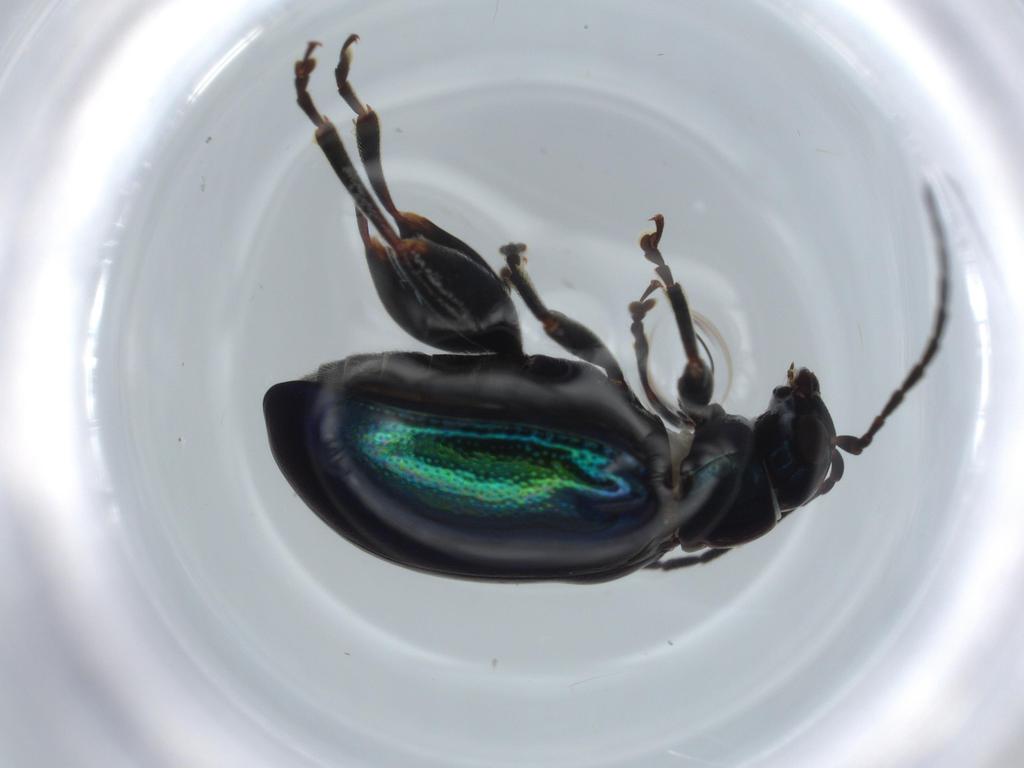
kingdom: Animalia
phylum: Arthropoda
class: Insecta
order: Coleoptera
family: Chrysomelidae
